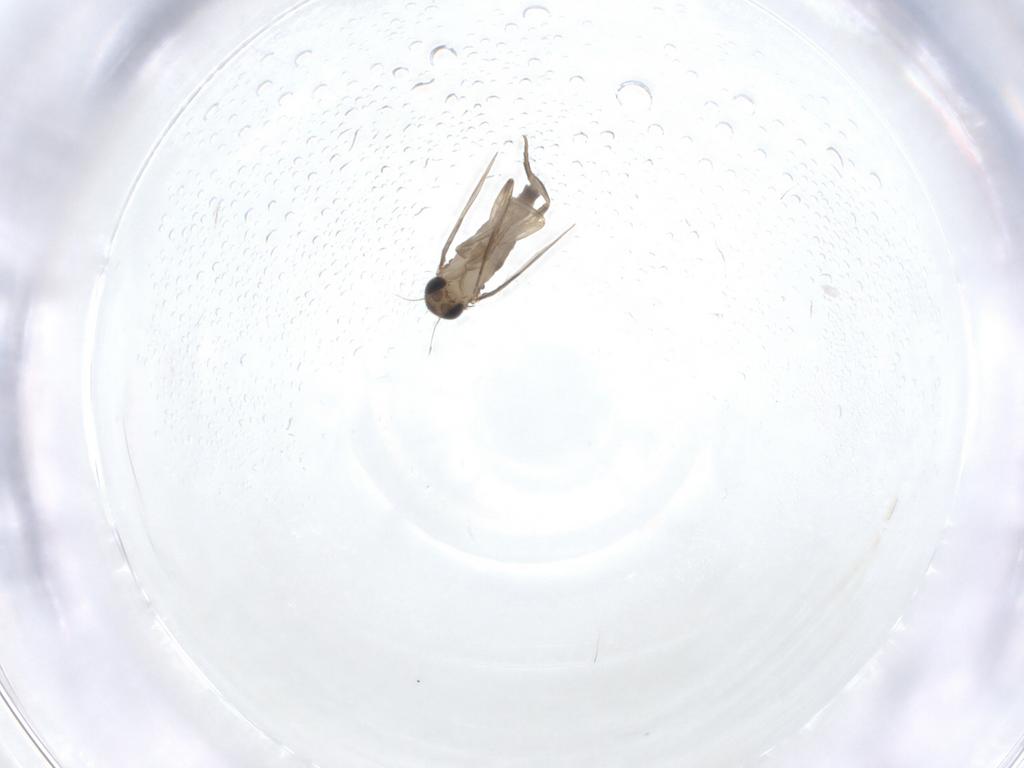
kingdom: Animalia
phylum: Arthropoda
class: Insecta
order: Diptera
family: Phoridae
